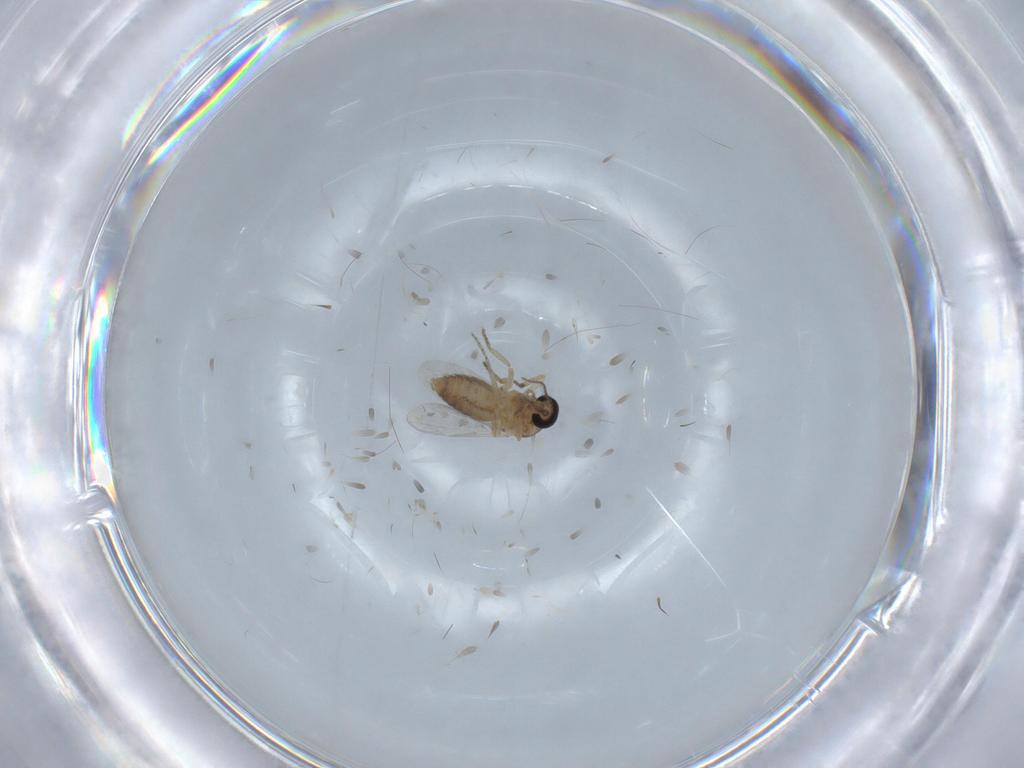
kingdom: Animalia
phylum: Arthropoda
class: Insecta
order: Diptera
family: Ceratopogonidae
